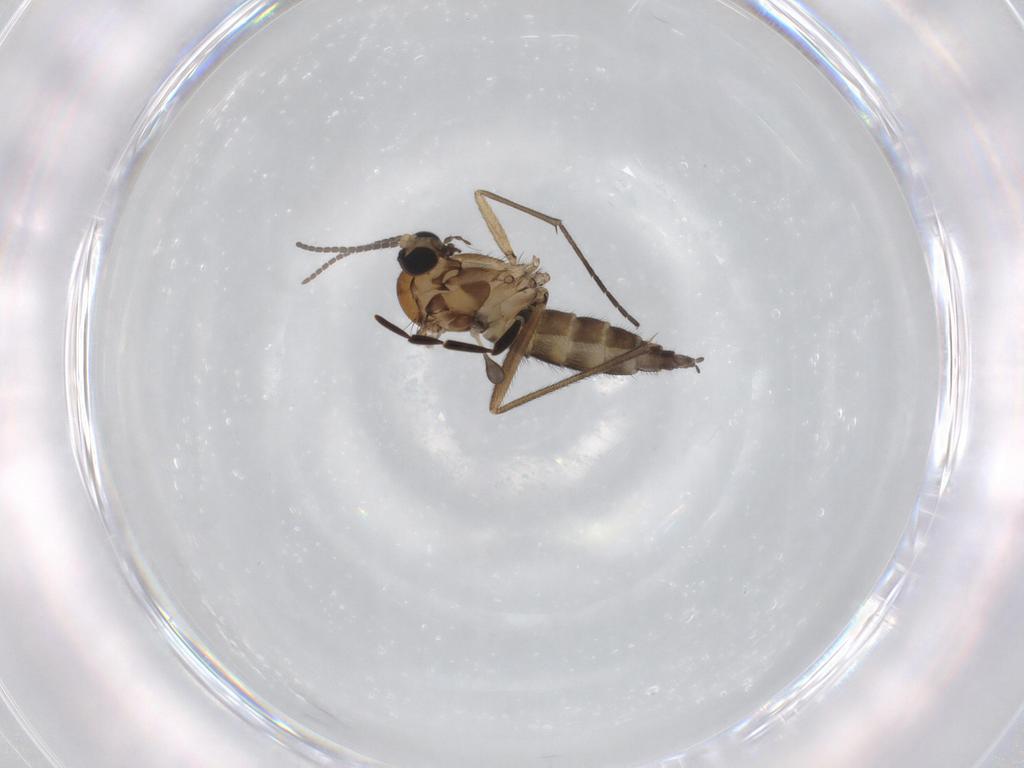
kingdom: Animalia
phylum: Arthropoda
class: Insecta
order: Diptera
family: Sciaridae
